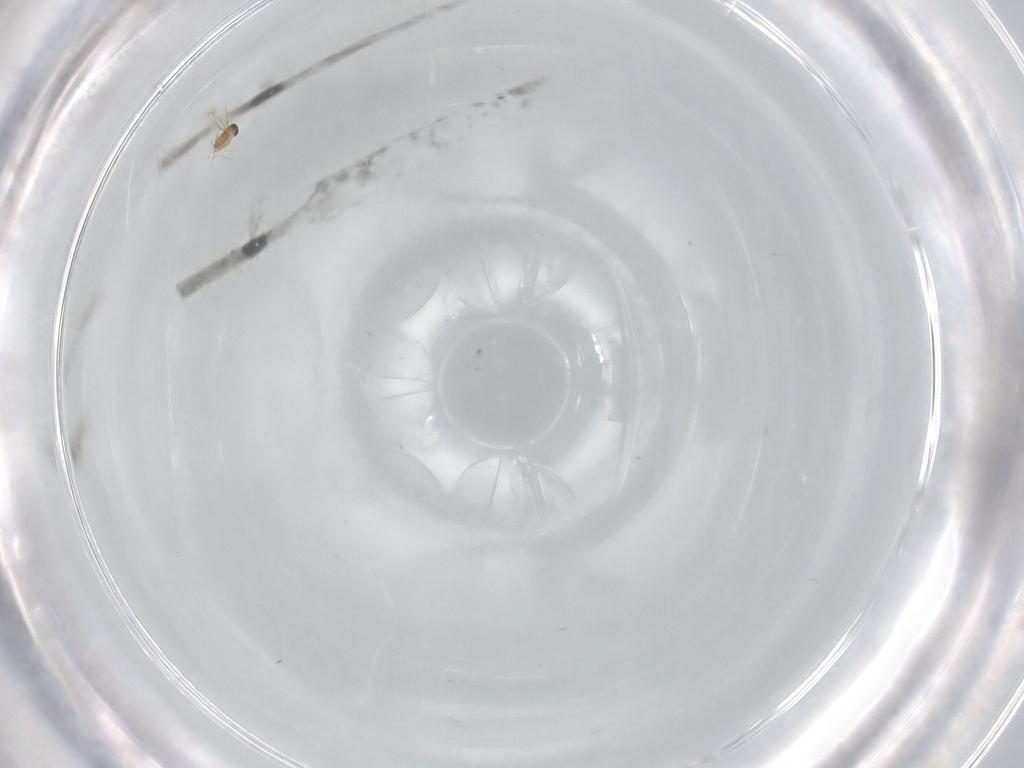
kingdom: Animalia
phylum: Arthropoda
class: Insecta
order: Hymenoptera
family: Mymaridae
